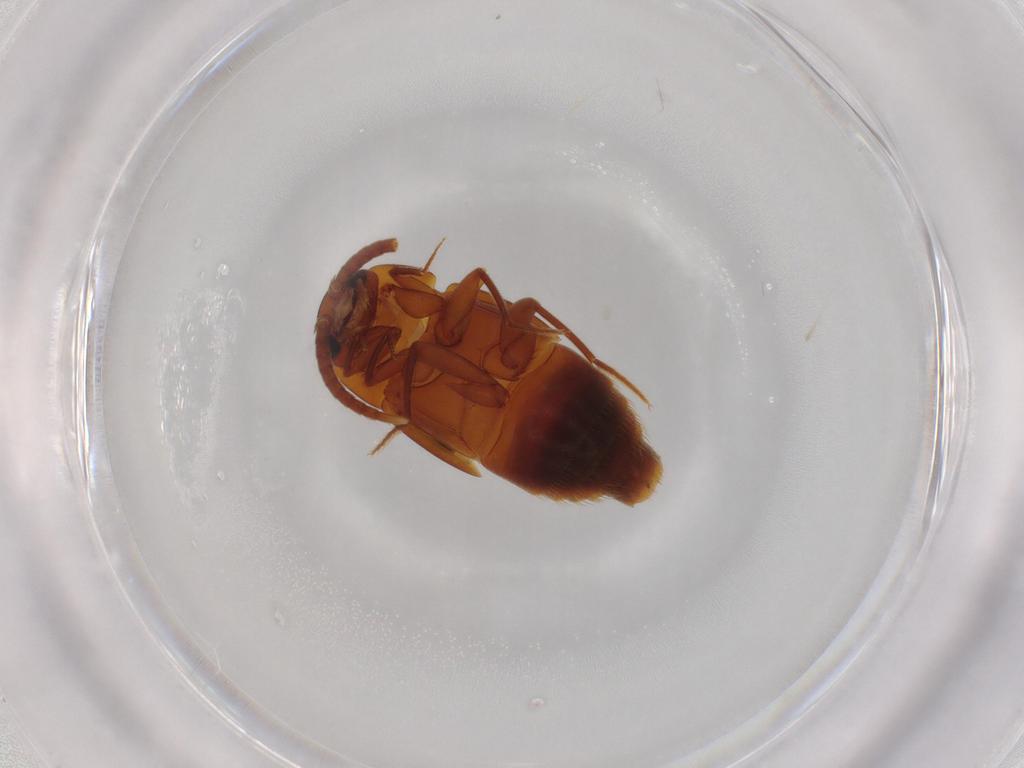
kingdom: Animalia
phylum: Arthropoda
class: Insecta
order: Coleoptera
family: Staphylinidae
